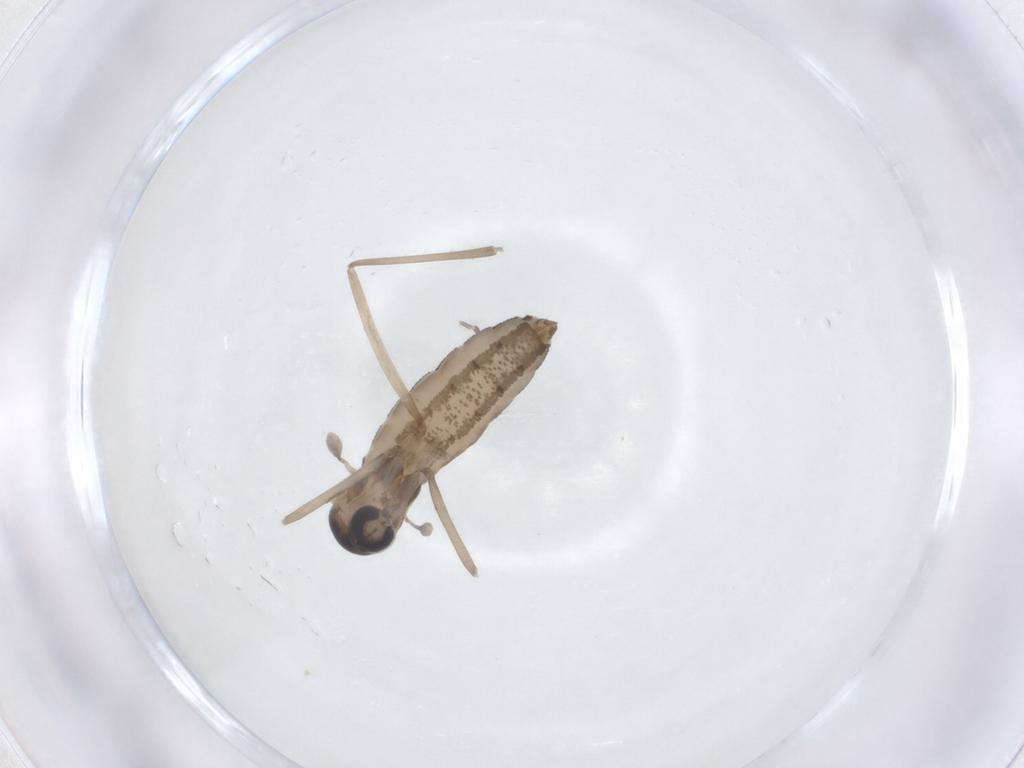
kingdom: Animalia
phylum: Arthropoda
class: Insecta
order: Diptera
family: Cecidomyiidae
